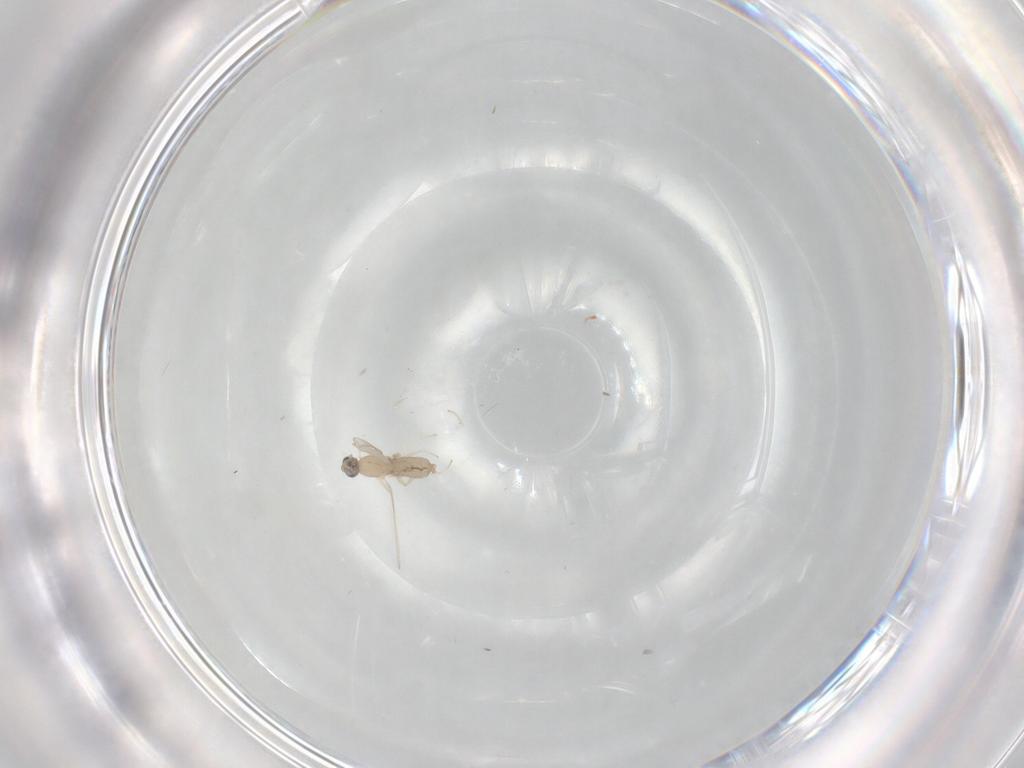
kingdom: Animalia
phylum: Arthropoda
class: Insecta
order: Diptera
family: Cecidomyiidae
